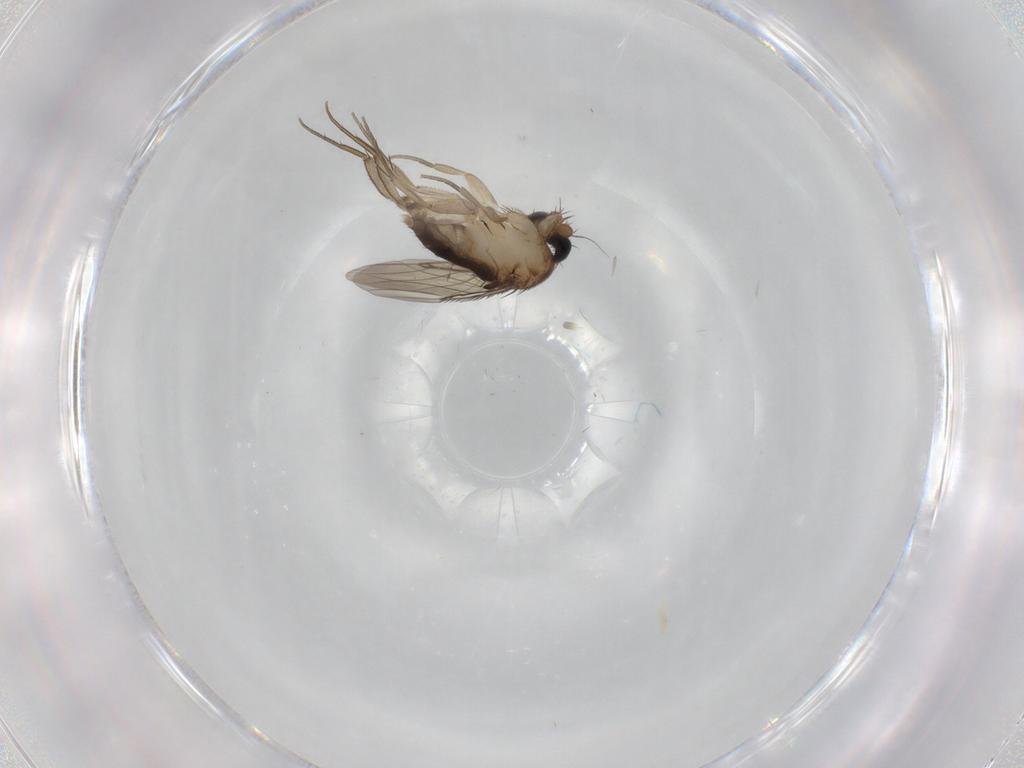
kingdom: Animalia
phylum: Arthropoda
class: Insecta
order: Diptera
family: Phoridae
